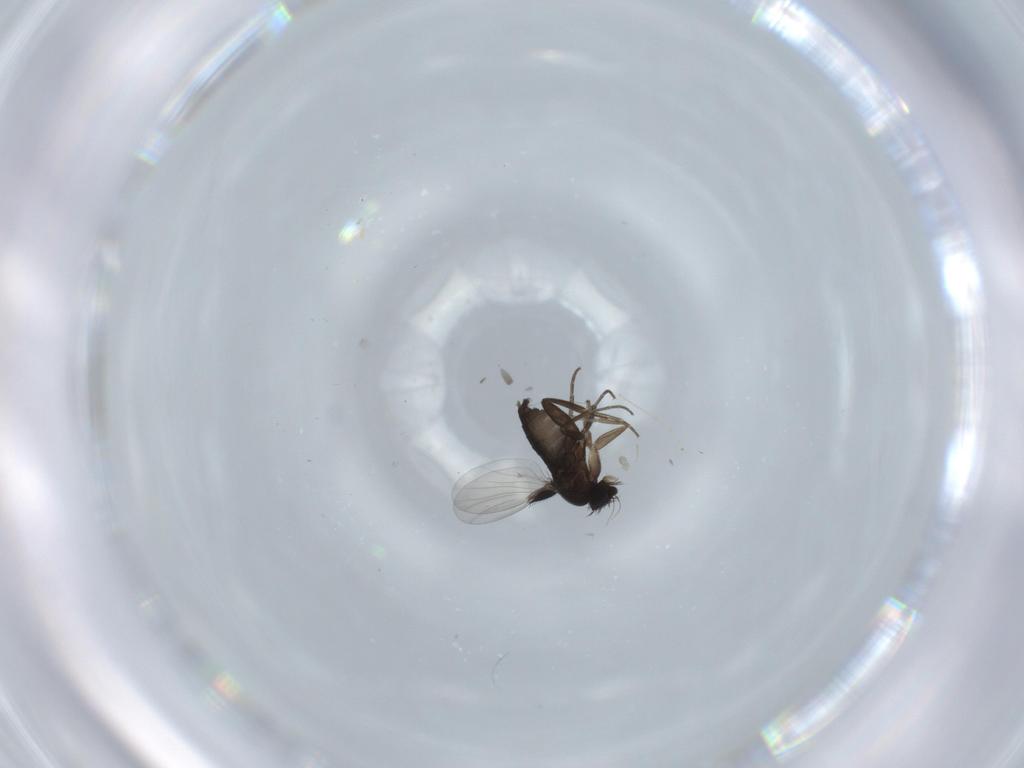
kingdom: Animalia
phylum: Arthropoda
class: Insecta
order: Diptera
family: Phoridae
